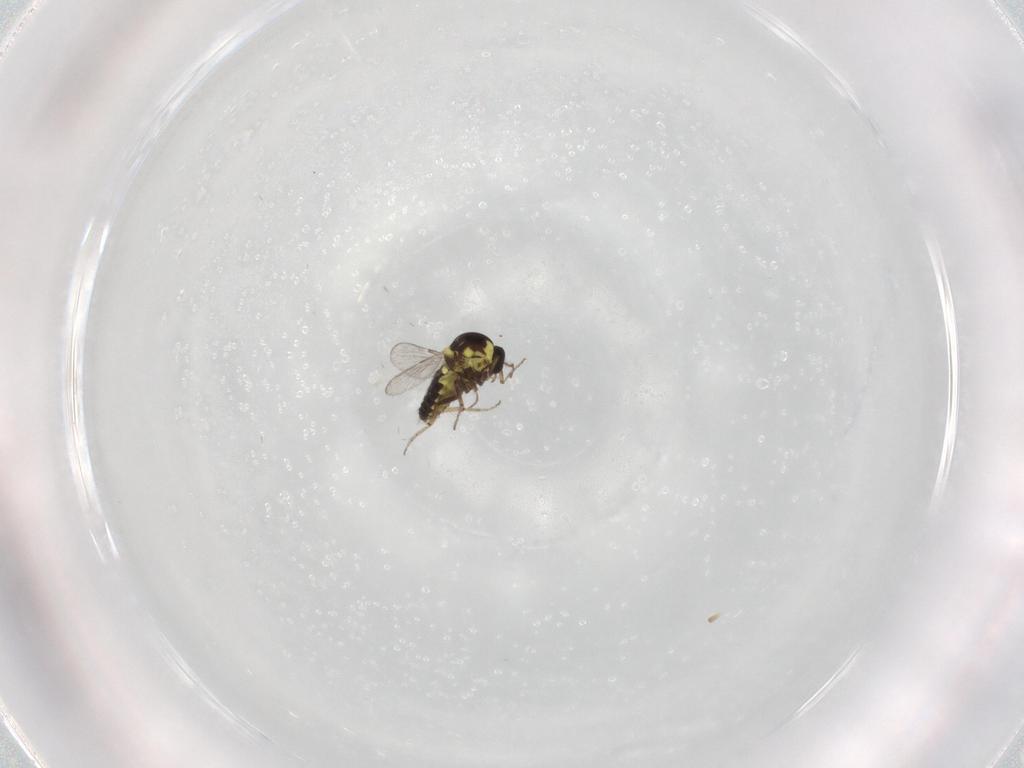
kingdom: Animalia
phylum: Arthropoda
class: Insecta
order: Diptera
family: Ceratopogonidae
